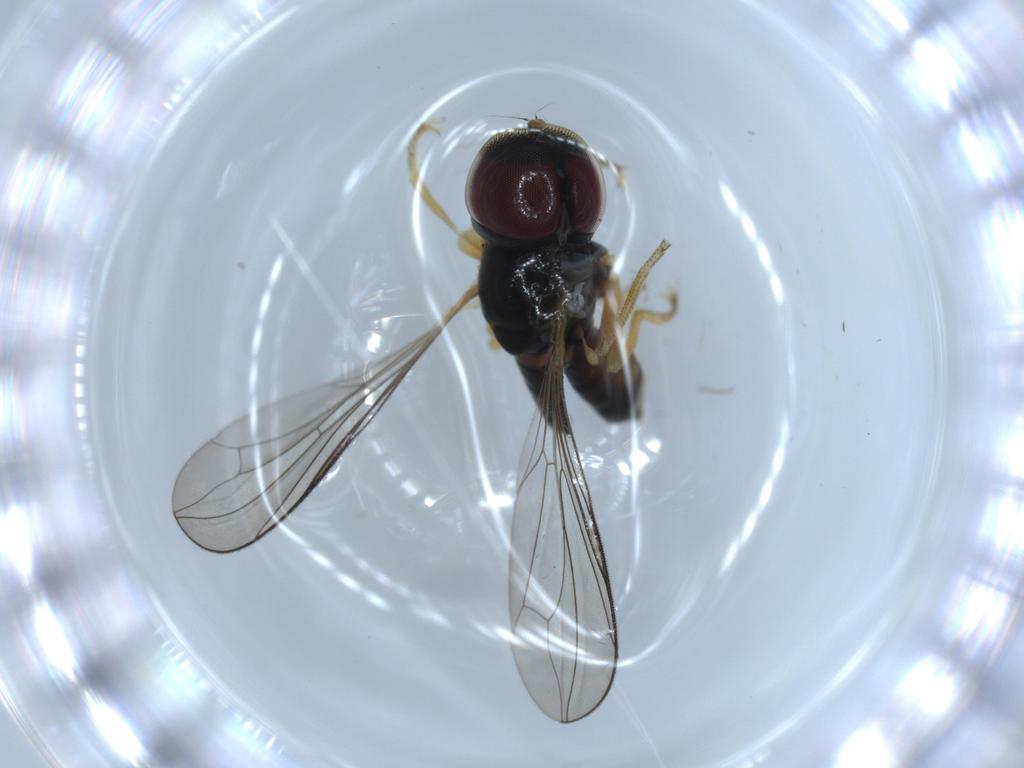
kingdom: Animalia
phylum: Arthropoda
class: Insecta
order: Diptera
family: Pipunculidae
